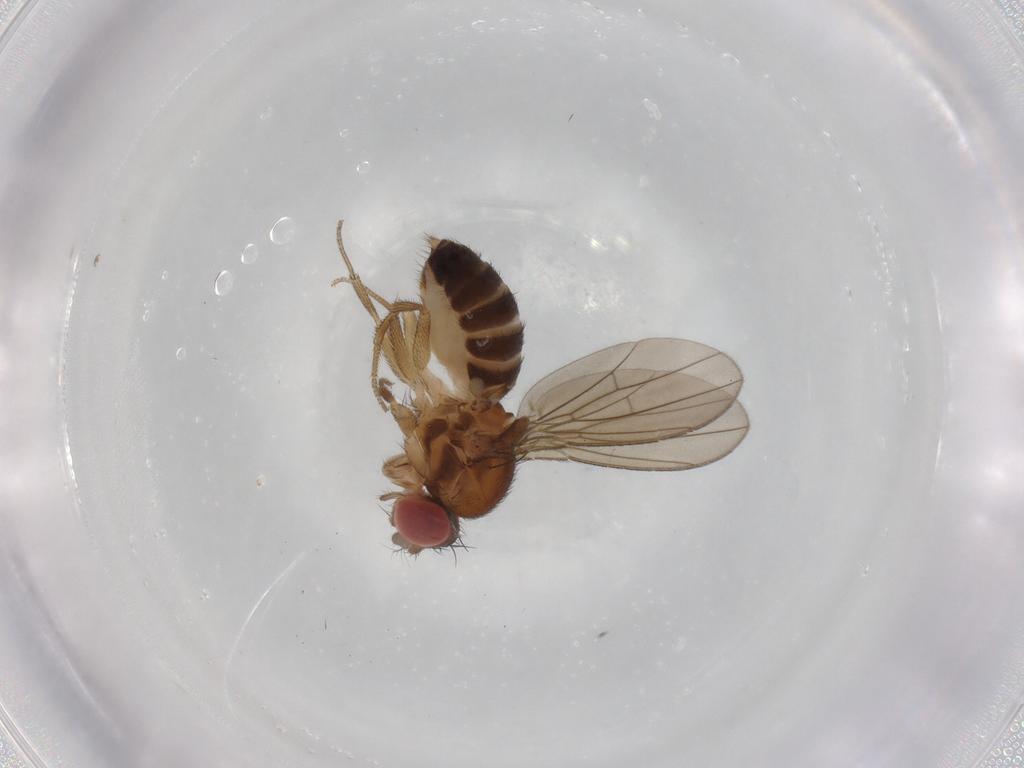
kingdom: Animalia
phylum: Arthropoda
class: Insecta
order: Diptera
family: Drosophilidae
